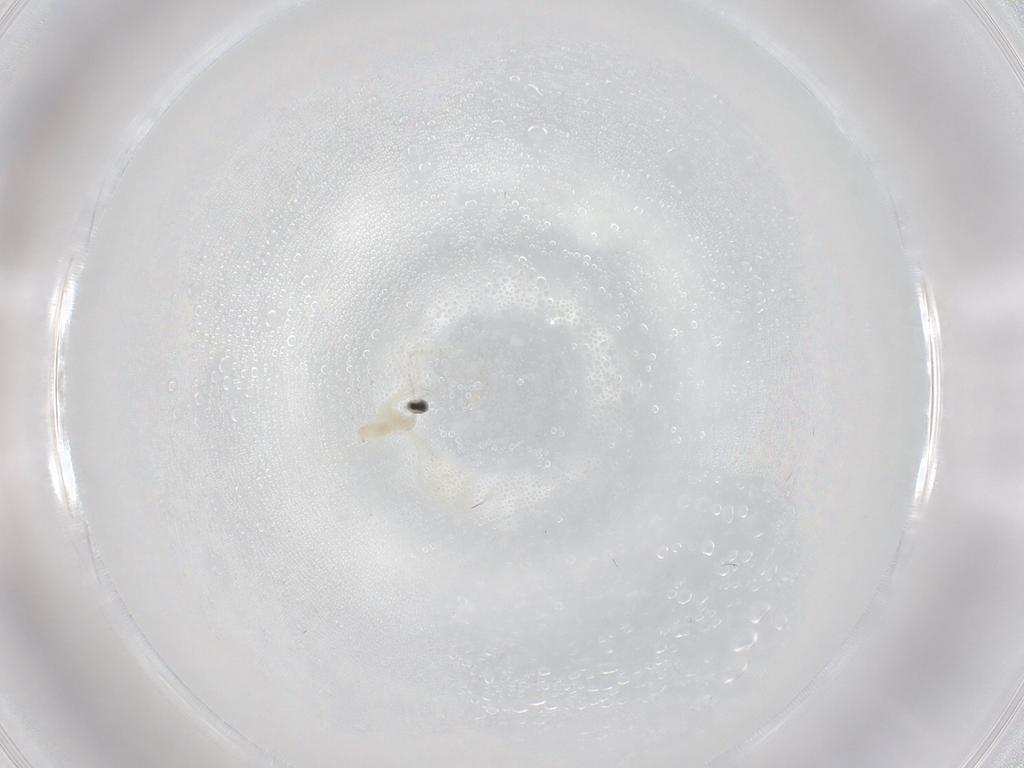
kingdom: Animalia
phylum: Arthropoda
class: Insecta
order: Diptera
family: Cecidomyiidae
